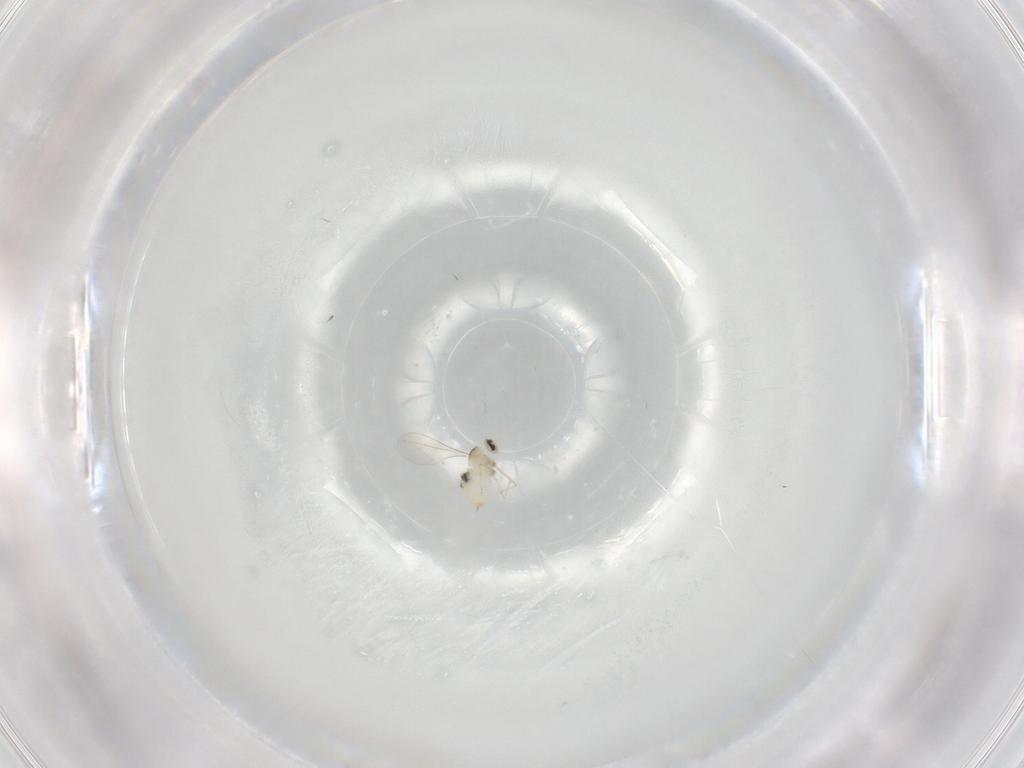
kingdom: Animalia
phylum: Arthropoda
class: Insecta
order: Diptera
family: Cecidomyiidae
